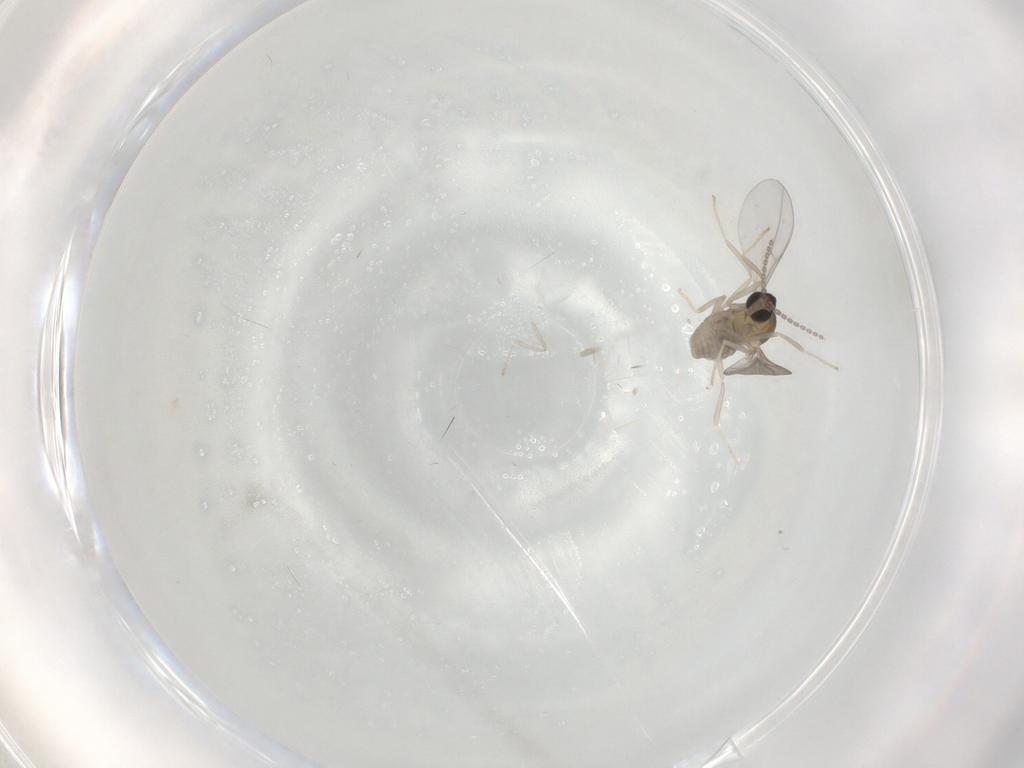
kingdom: Animalia
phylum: Arthropoda
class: Insecta
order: Diptera
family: Cecidomyiidae
